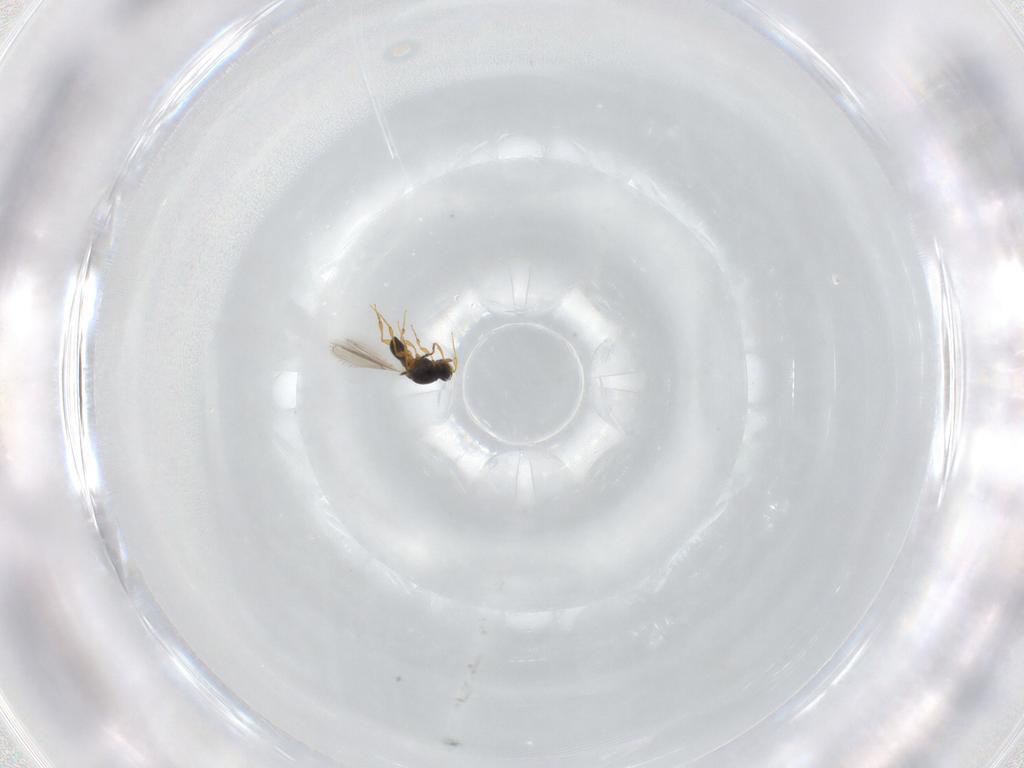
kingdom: Animalia
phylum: Arthropoda
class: Insecta
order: Hymenoptera
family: Platygastridae
